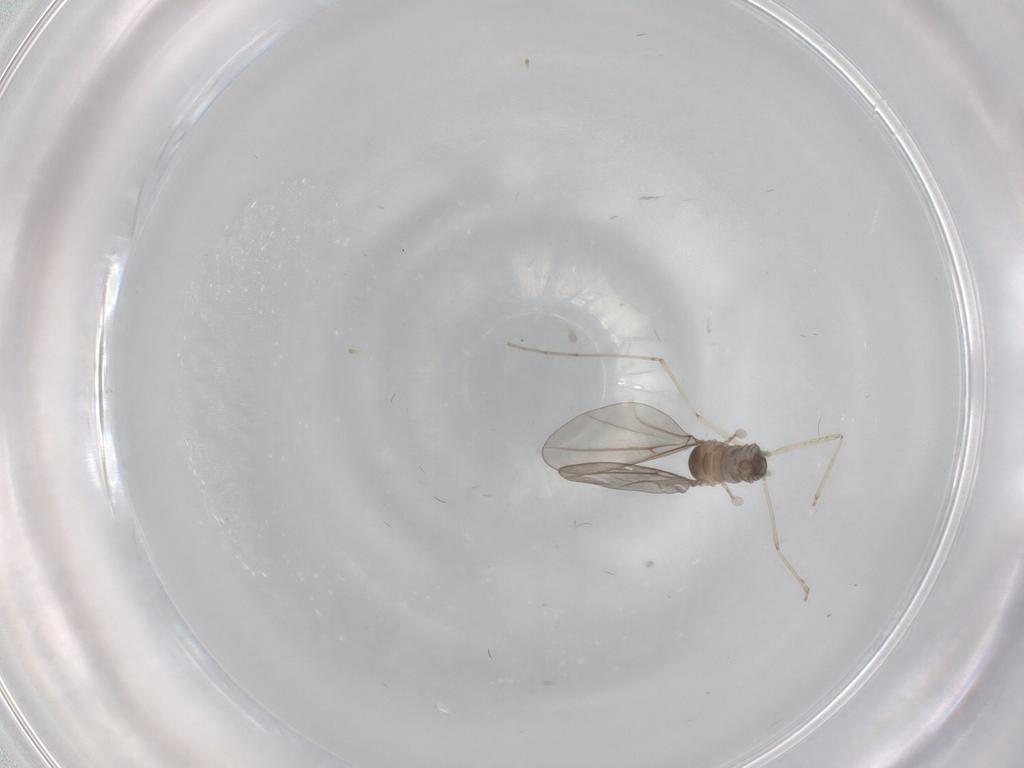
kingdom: Animalia
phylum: Arthropoda
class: Insecta
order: Diptera
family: Cecidomyiidae
